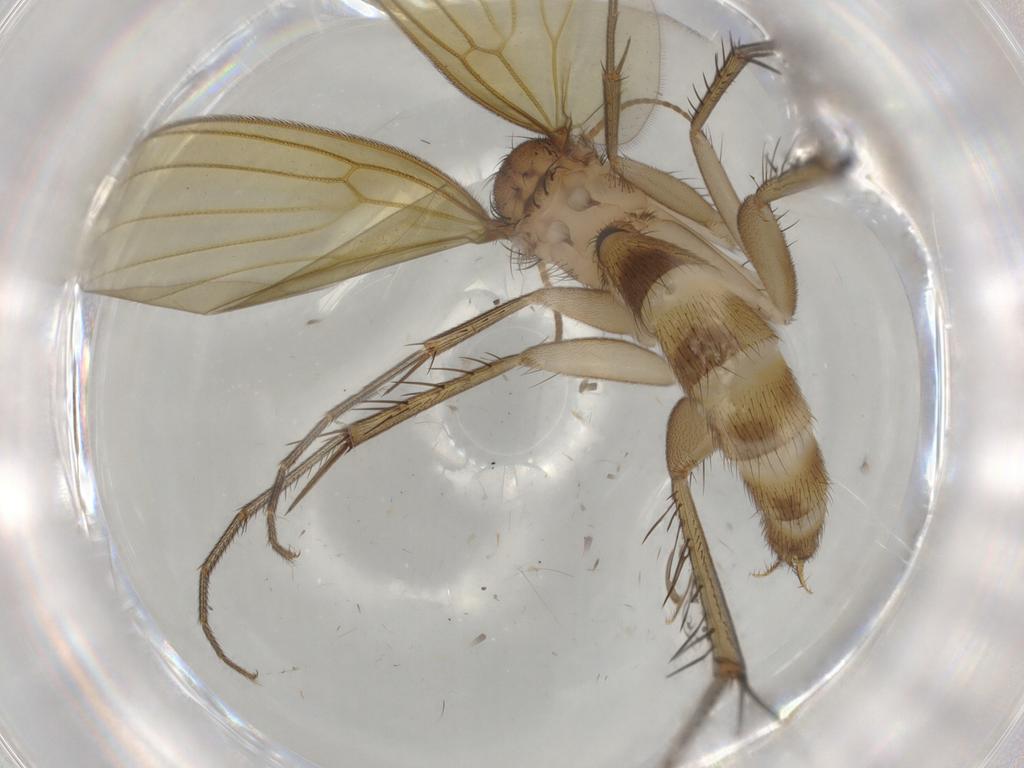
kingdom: Animalia
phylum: Arthropoda
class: Insecta
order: Diptera
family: Mycetophilidae
